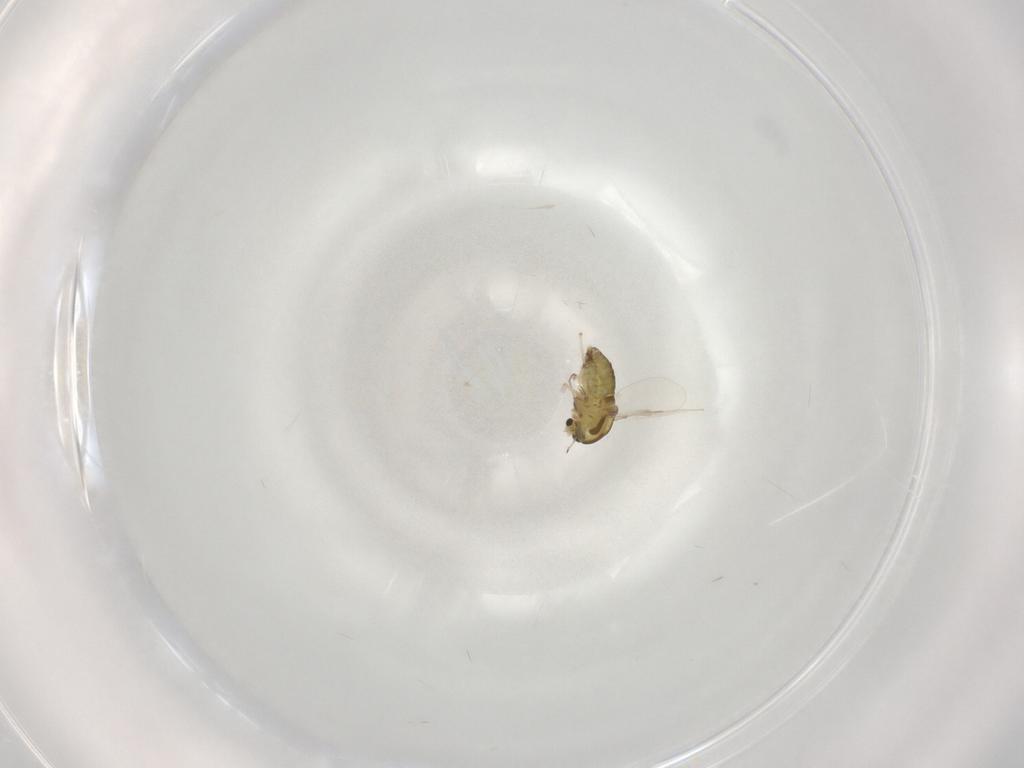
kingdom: Animalia
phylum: Arthropoda
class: Insecta
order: Diptera
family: Chironomidae
